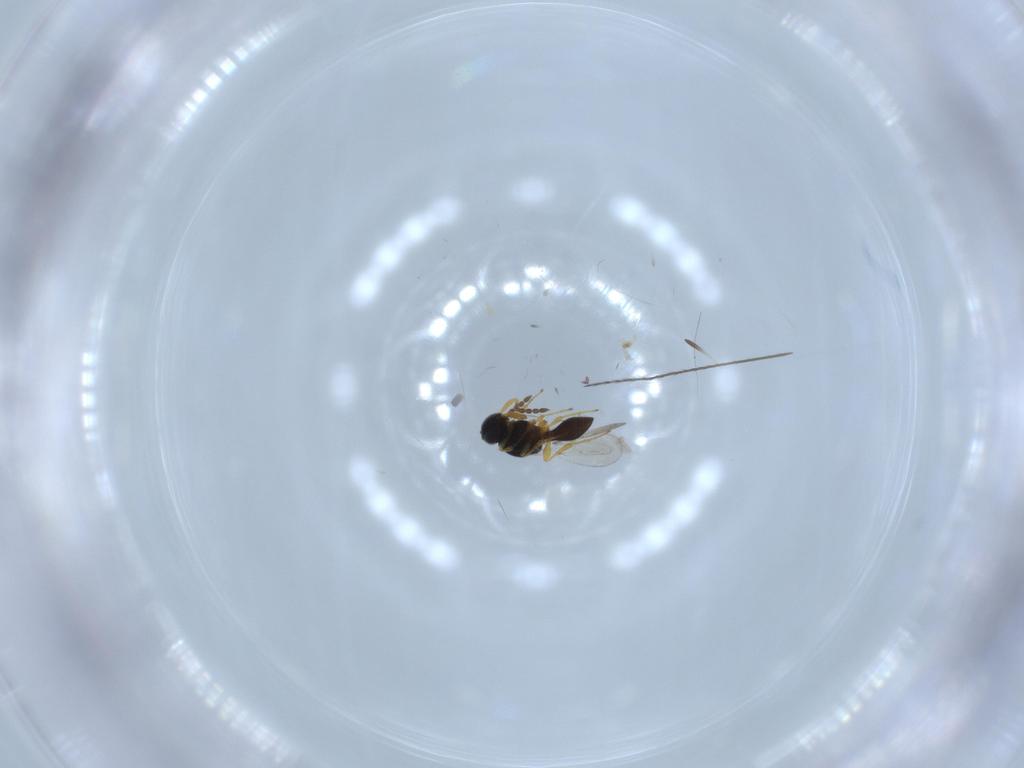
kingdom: Animalia
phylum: Arthropoda
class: Insecta
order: Hymenoptera
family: Platygastridae
